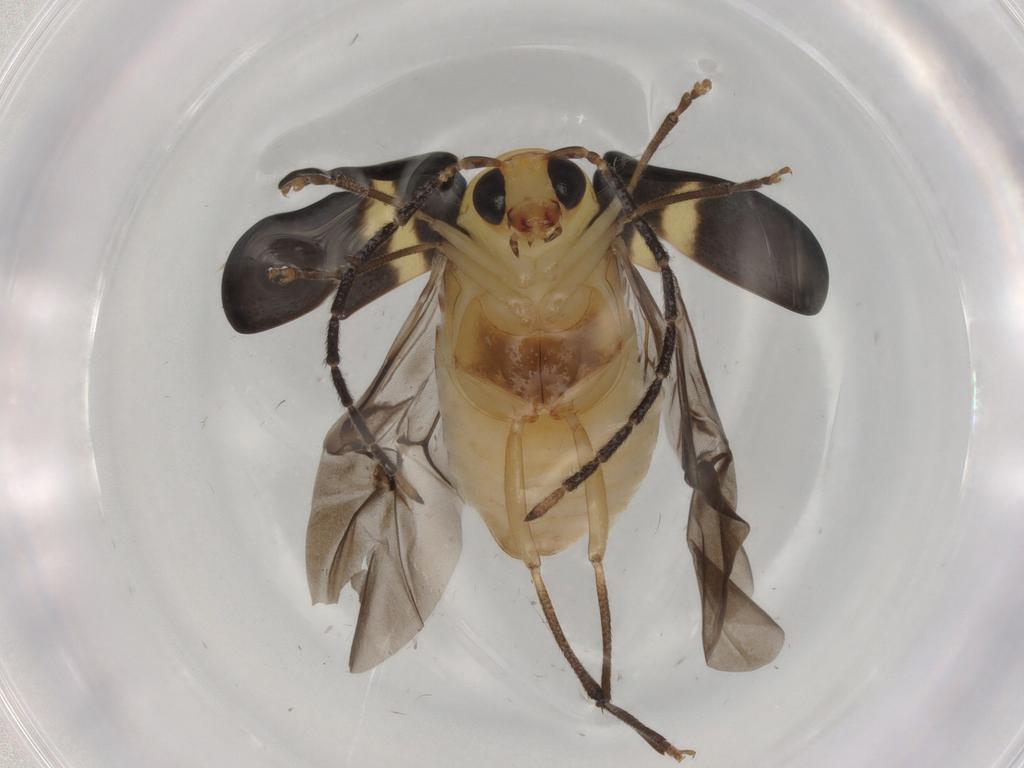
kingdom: Animalia
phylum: Arthropoda
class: Insecta
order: Coleoptera
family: Chrysomelidae
